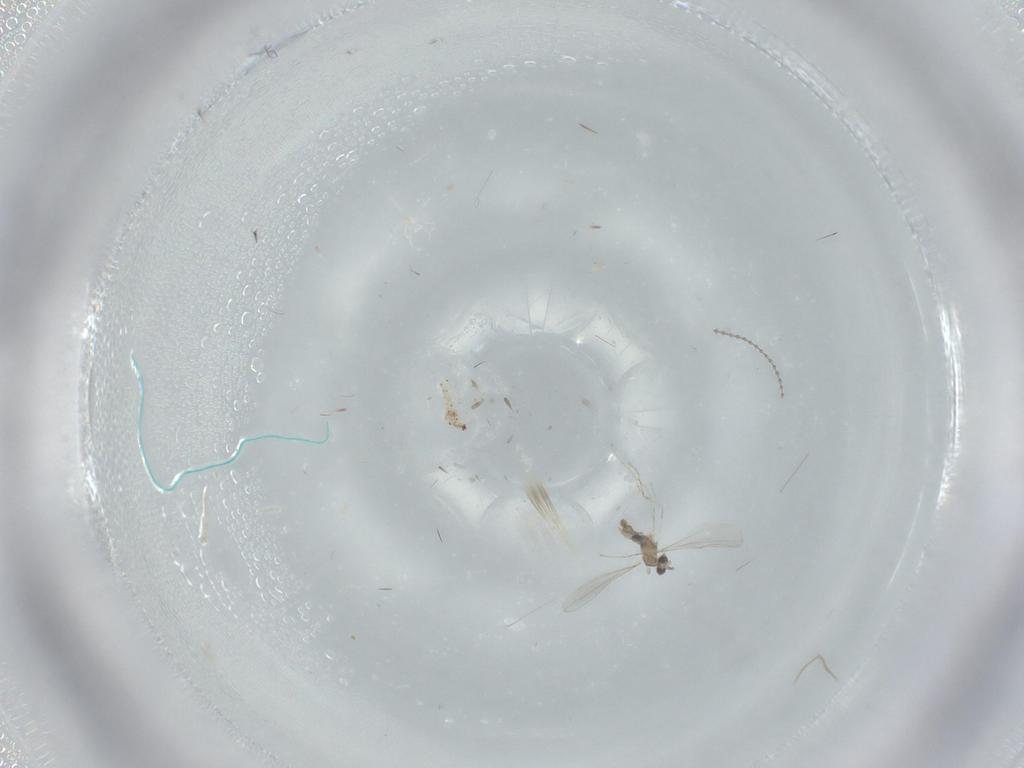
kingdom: Animalia
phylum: Arthropoda
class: Insecta
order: Diptera
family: Cecidomyiidae
